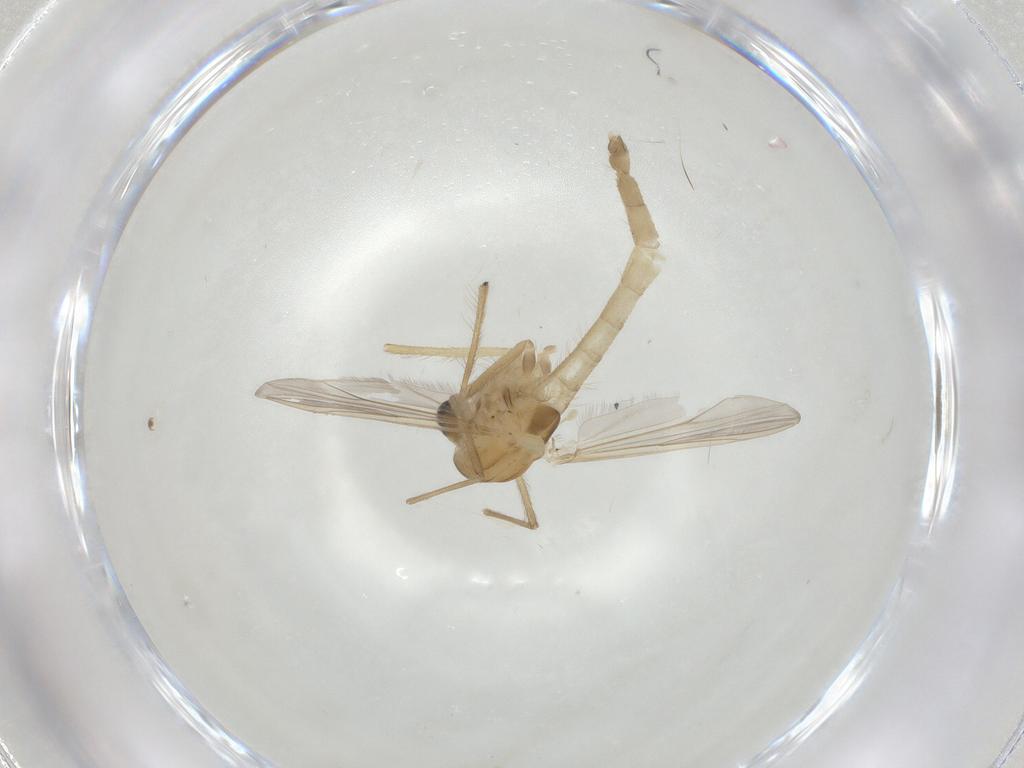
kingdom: Animalia
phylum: Arthropoda
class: Insecta
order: Diptera
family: Chironomidae
